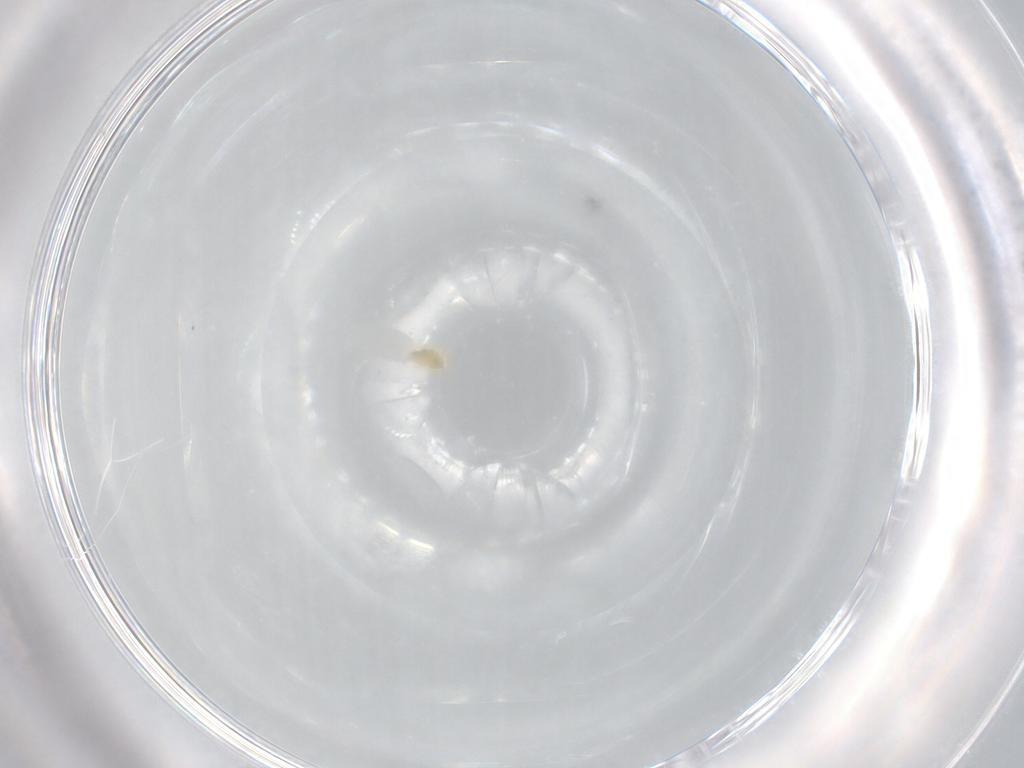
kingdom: Animalia
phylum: Arthropoda
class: Arachnida
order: Trombidiformes
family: Eupodidae
